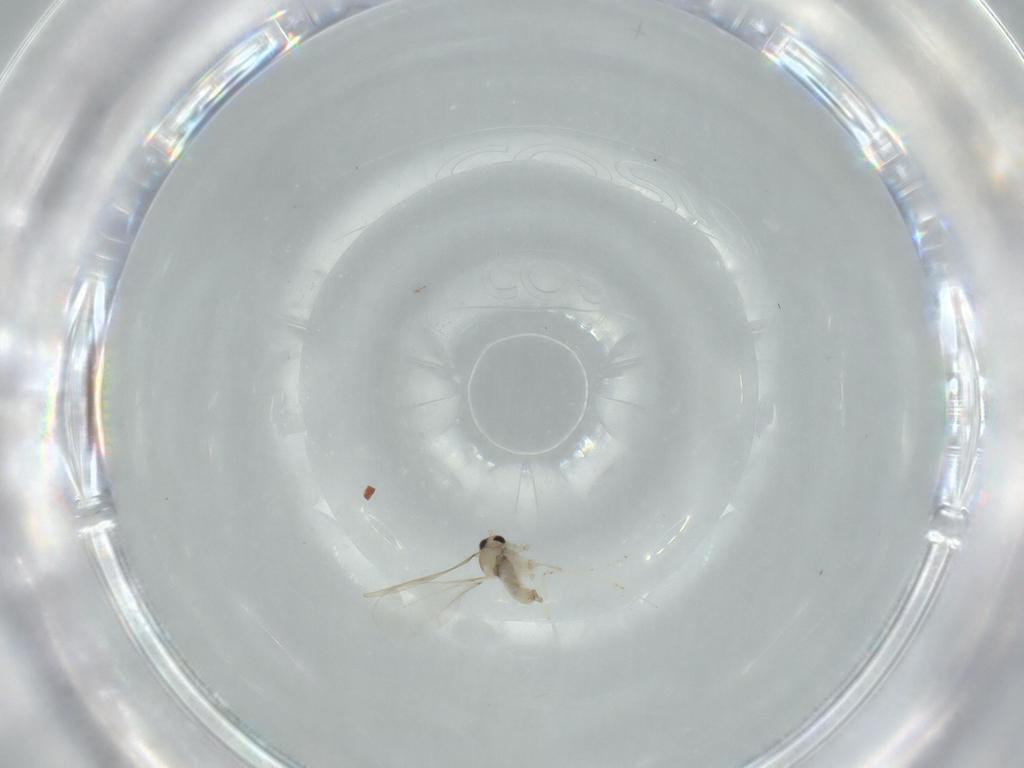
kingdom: Animalia
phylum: Arthropoda
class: Insecta
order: Diptera
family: Cecidomyiidae
